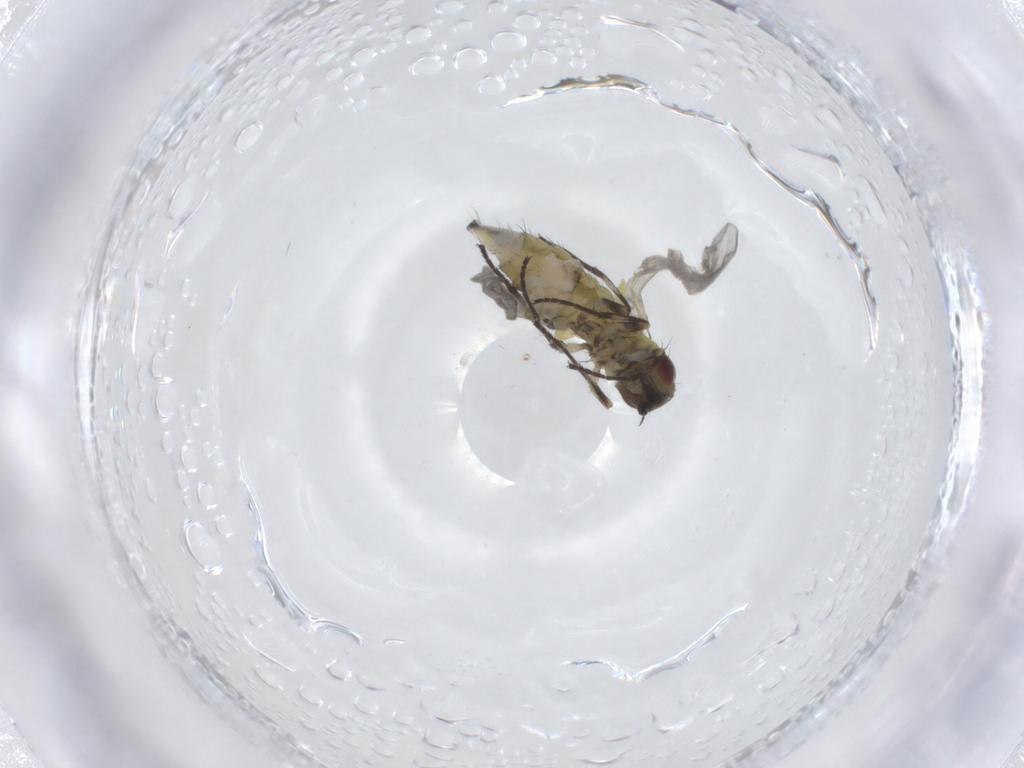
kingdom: Animalia
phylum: Arthropoda
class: Insecta
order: Diptera
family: Agromyzidae
